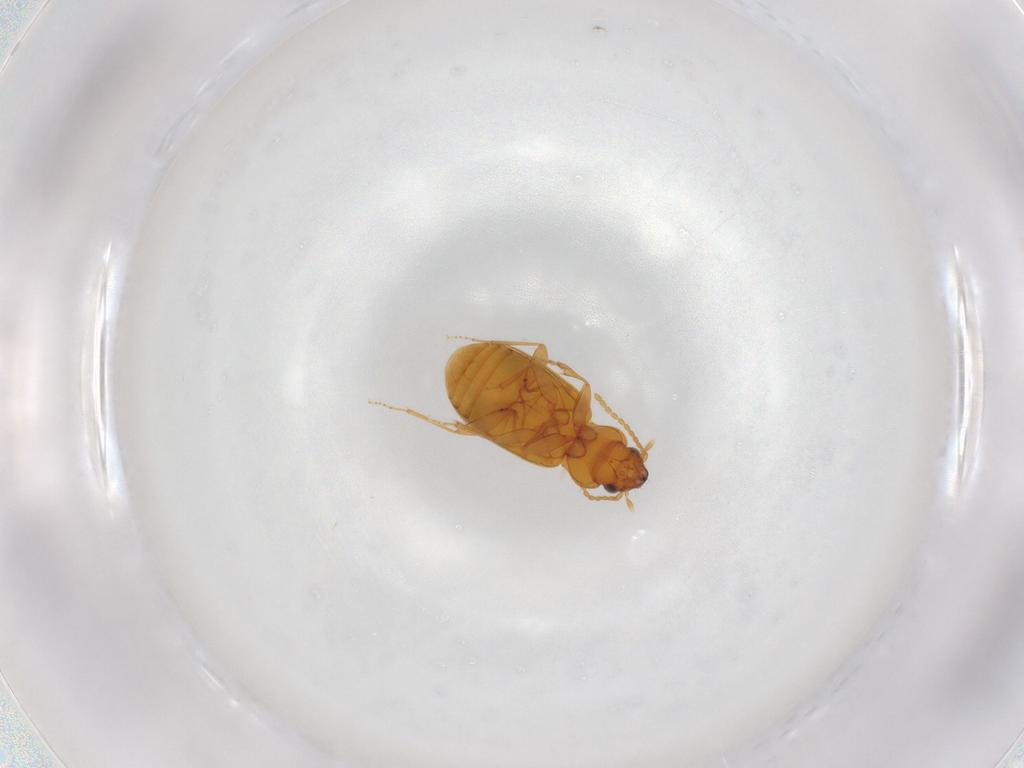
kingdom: Animalia
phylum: Arthropoda
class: Insecta
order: Coleoptera
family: Carabidae
